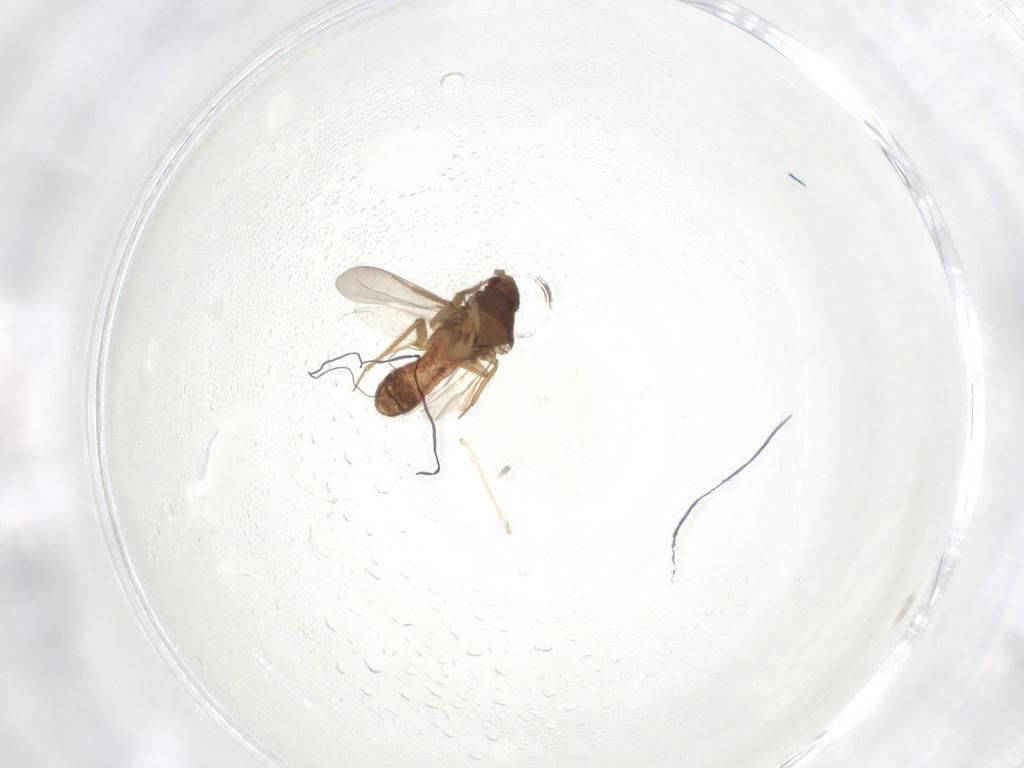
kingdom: Animalia
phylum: Arthropoda
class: Insecta
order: Hemiptera
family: Ceratocombidae
